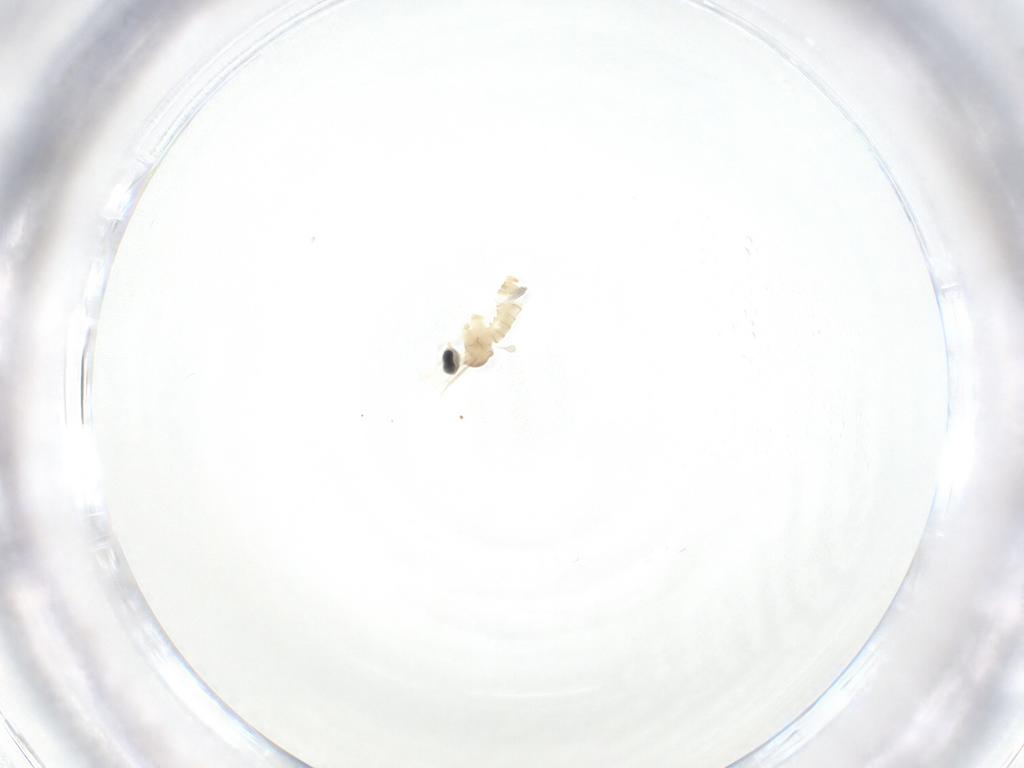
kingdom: Animalia
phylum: Arthropoda
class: Insecta
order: Diptera
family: Cecidomyiidae
